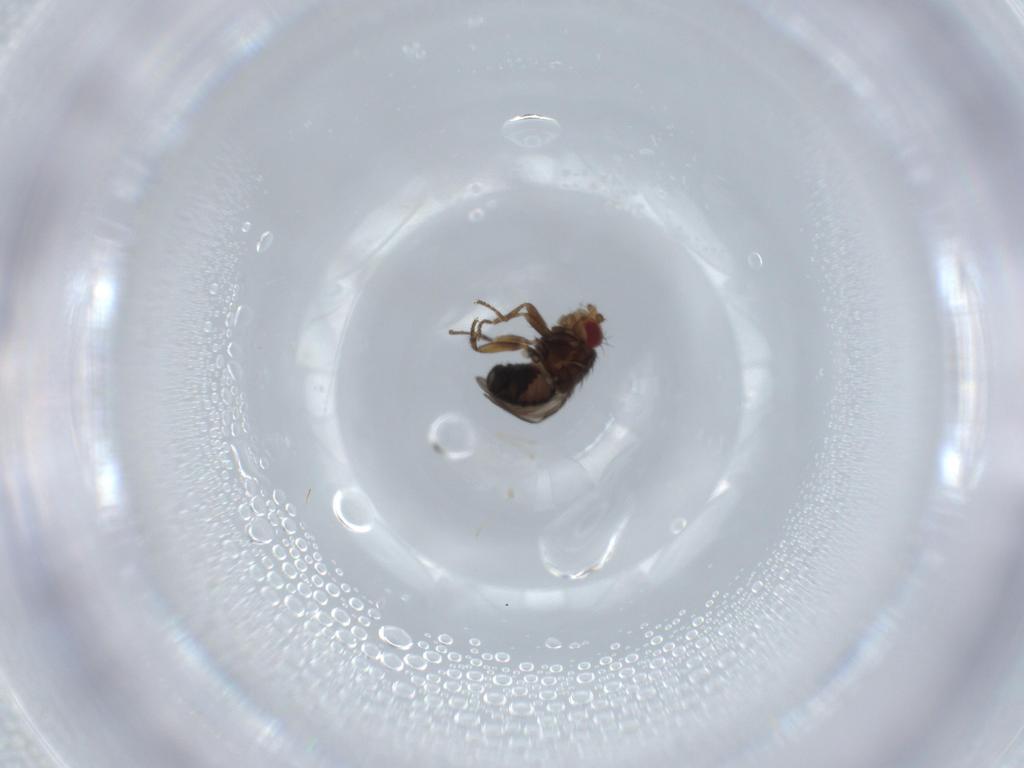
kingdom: Animalia
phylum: Arthropoda
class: Insecta
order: Diptera
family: Sphaeroceridae
